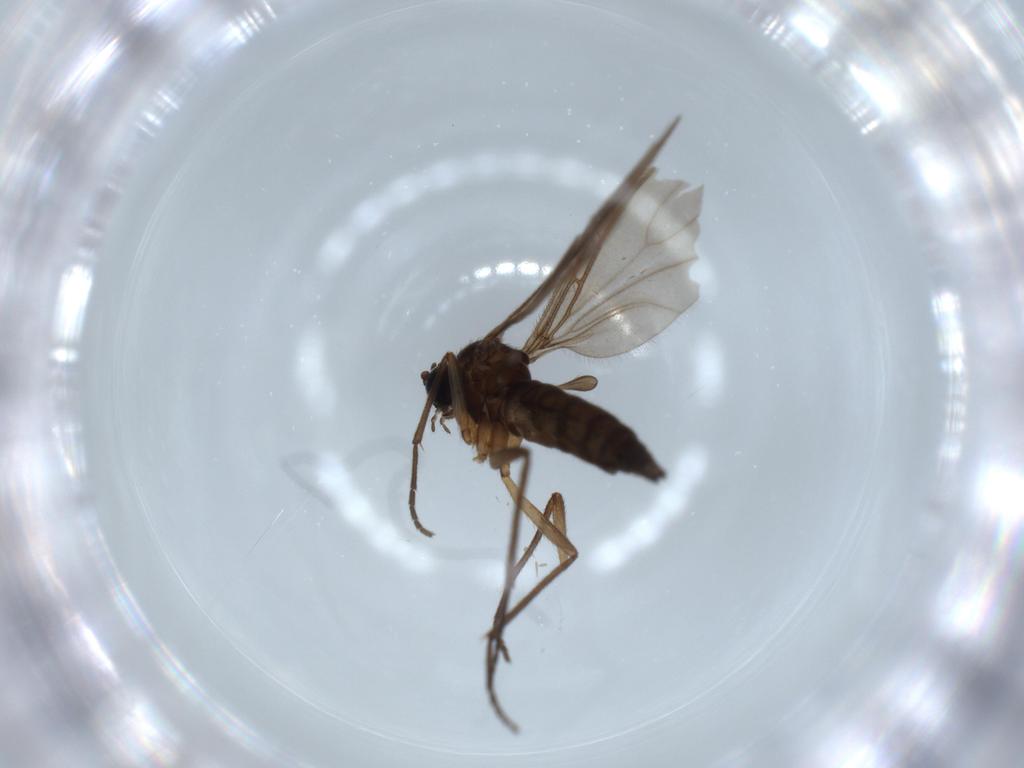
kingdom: Animalia
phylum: Arthropoda
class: Insecta
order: Diptera
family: Sciaridae
